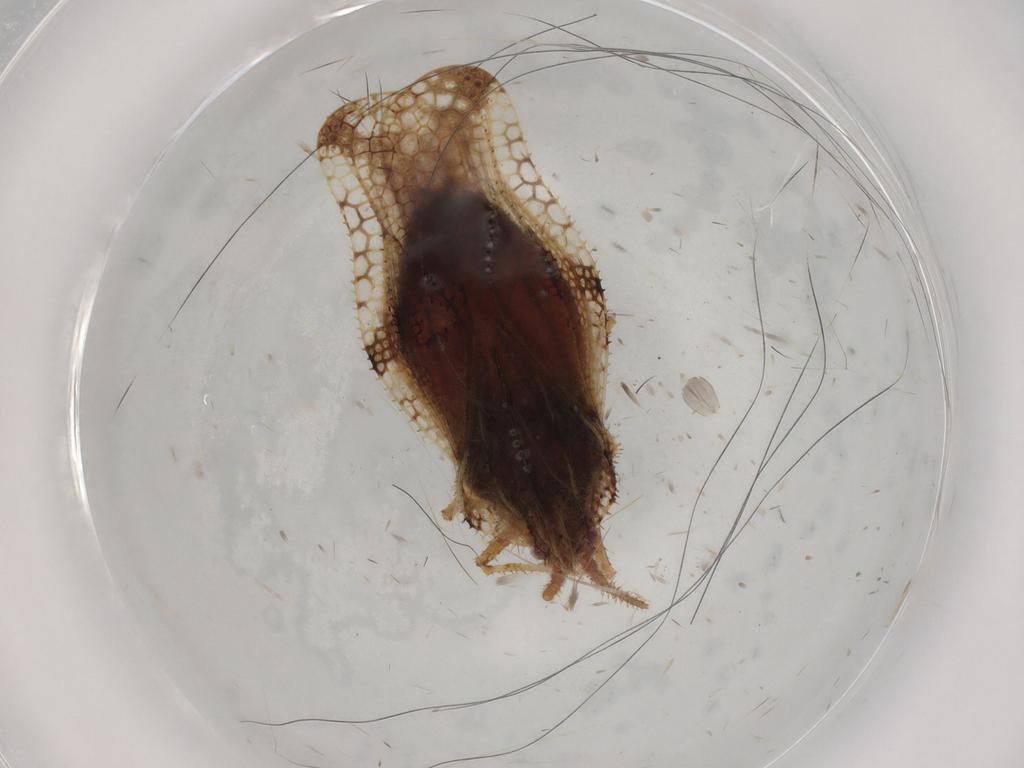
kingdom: Animalia
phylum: Arthropoda
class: Insecta
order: Hemiptera
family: Tingidae
